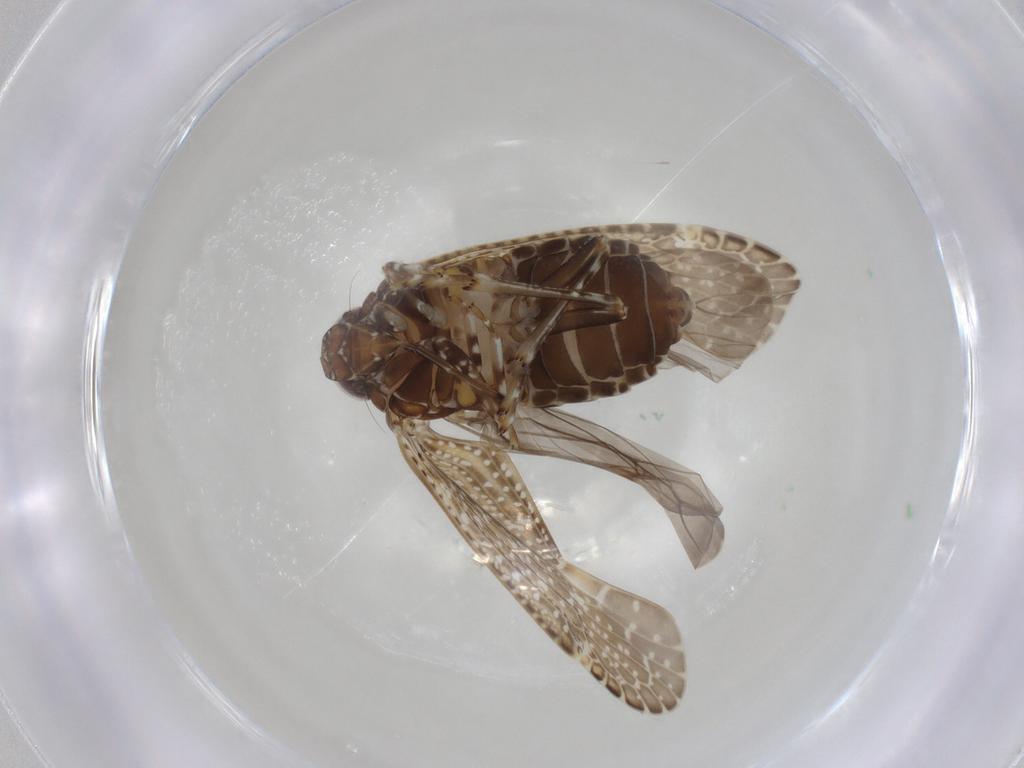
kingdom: Animalia
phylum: Arthropoda
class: Insecta
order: Hemiptera
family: Achilidae
